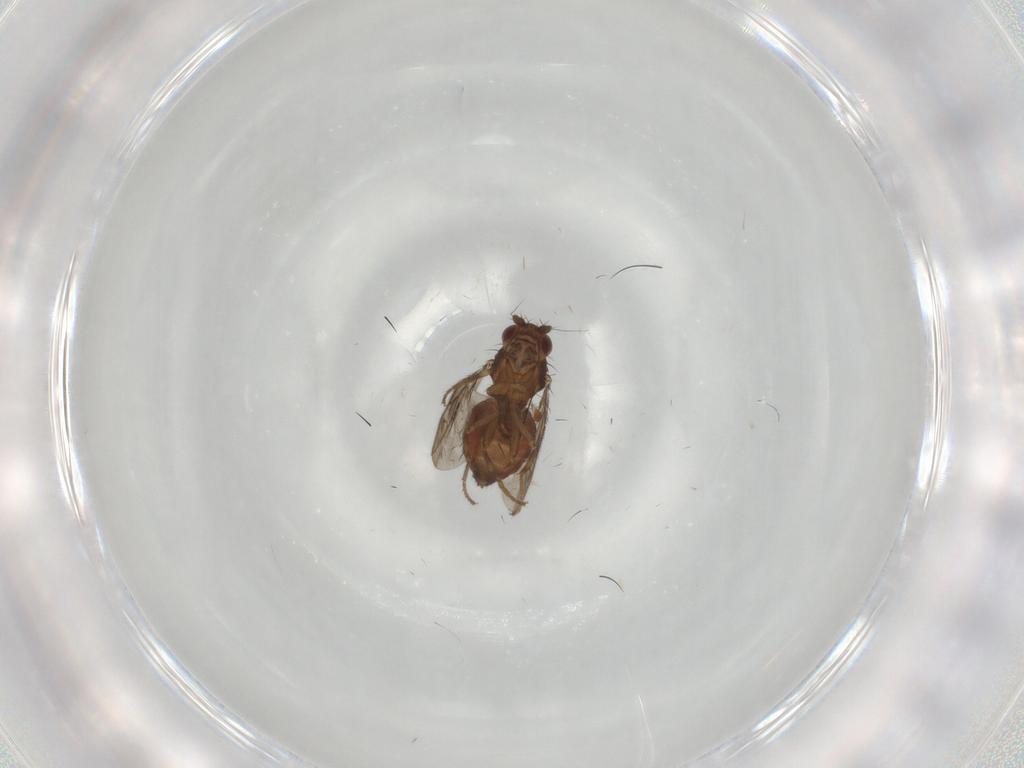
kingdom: Animalia
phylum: Arthropoda
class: Insecta
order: Diptera
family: Sphaeroceridae
